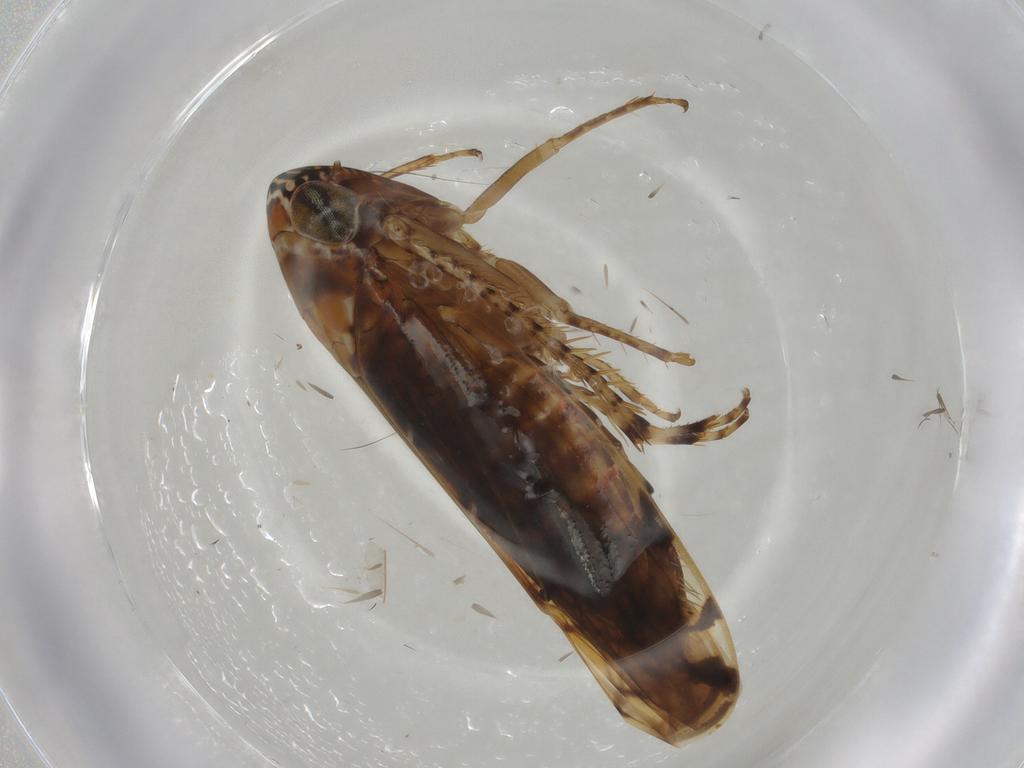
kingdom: Animalia
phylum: Arthropoda
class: Insecta
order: Hemiptera
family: Cicadellidae
